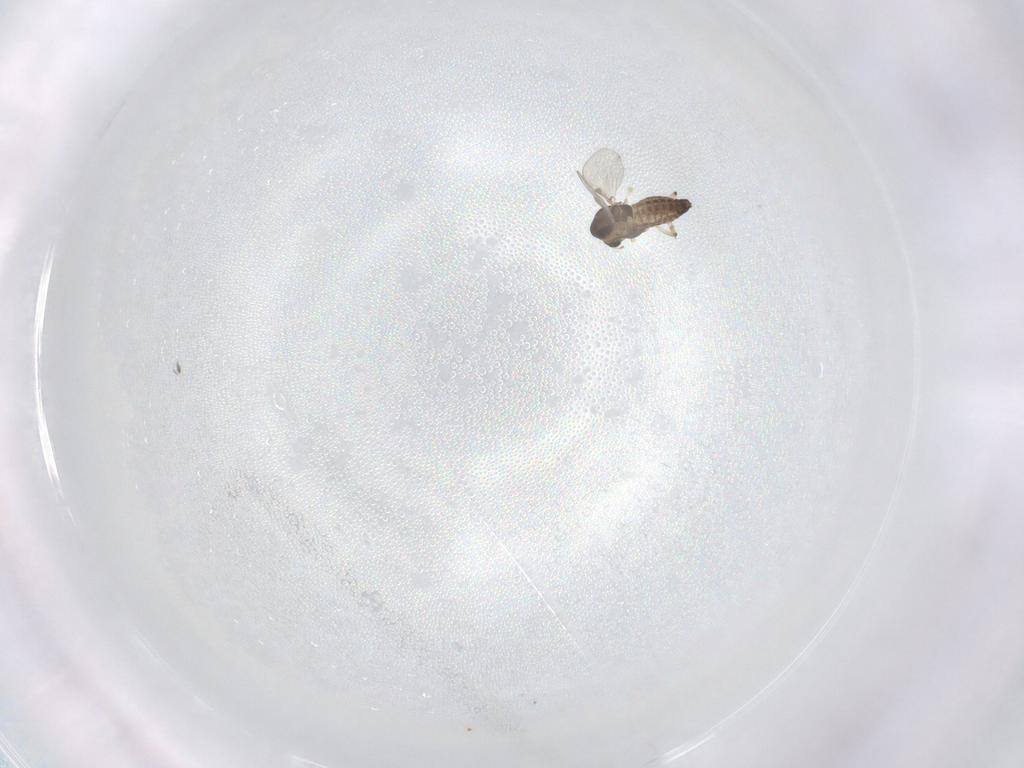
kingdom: Animalia
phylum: Arthropoda
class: Insecta
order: Diptera
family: Chironomidae
